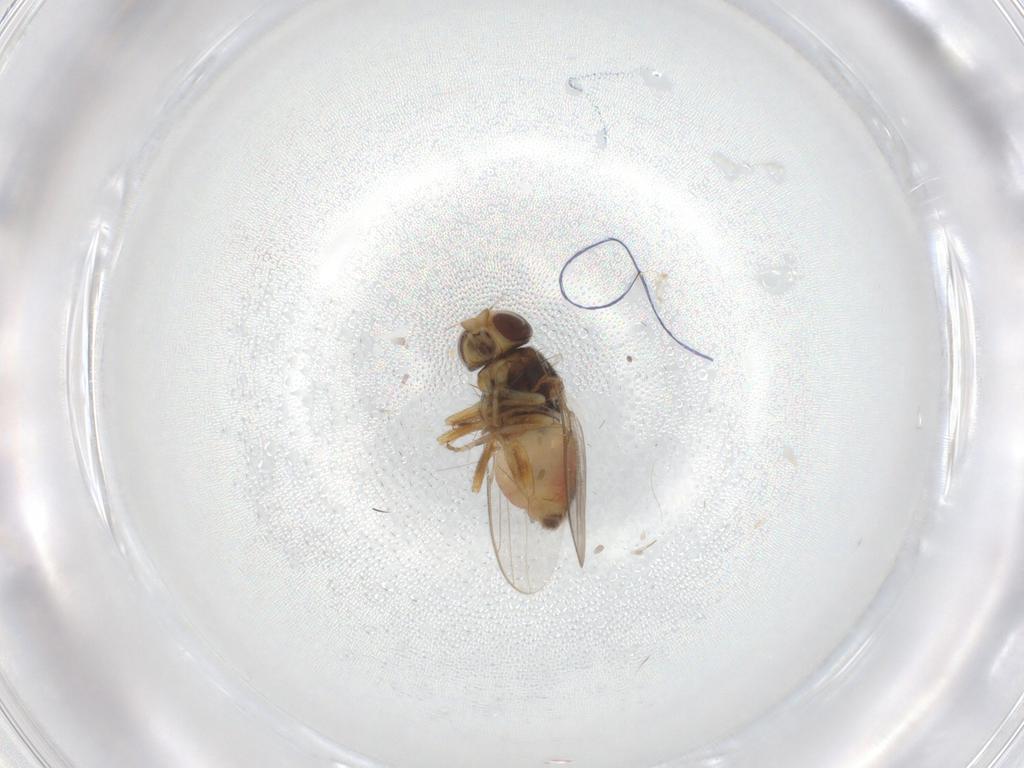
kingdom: Animalia
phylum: Arthropoda
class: Insecta
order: Diptera
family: Chloropidae
